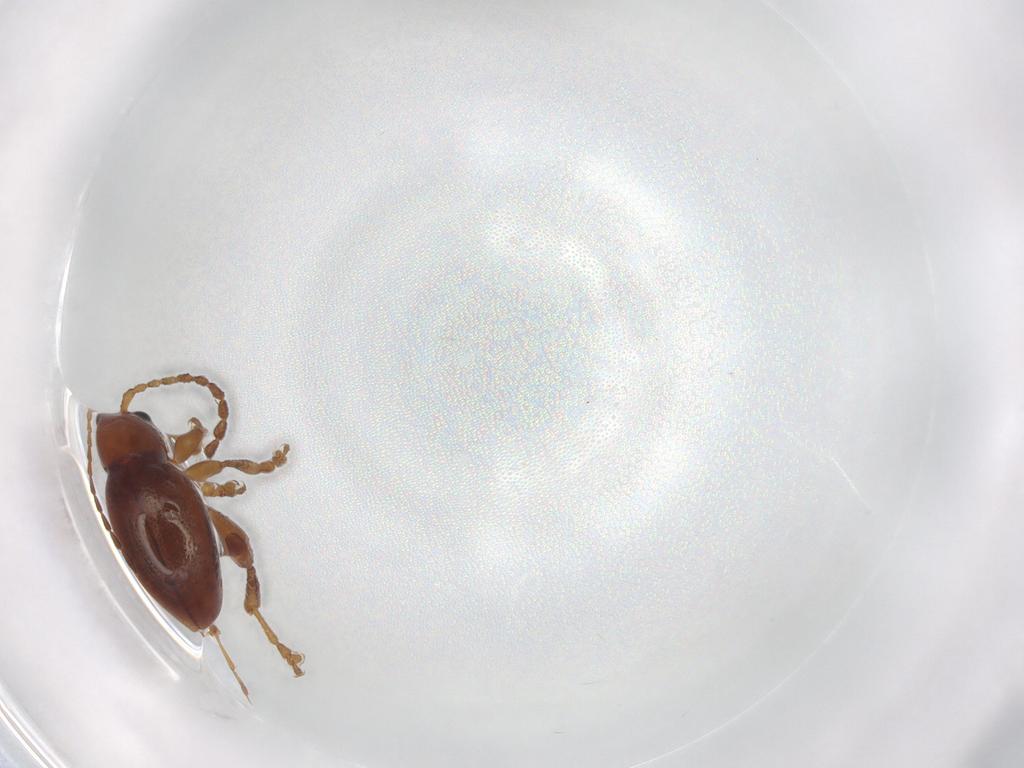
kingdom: Animalia
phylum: Arthropoda
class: Insecta
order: Coleoptera
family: Chrysomelidae
